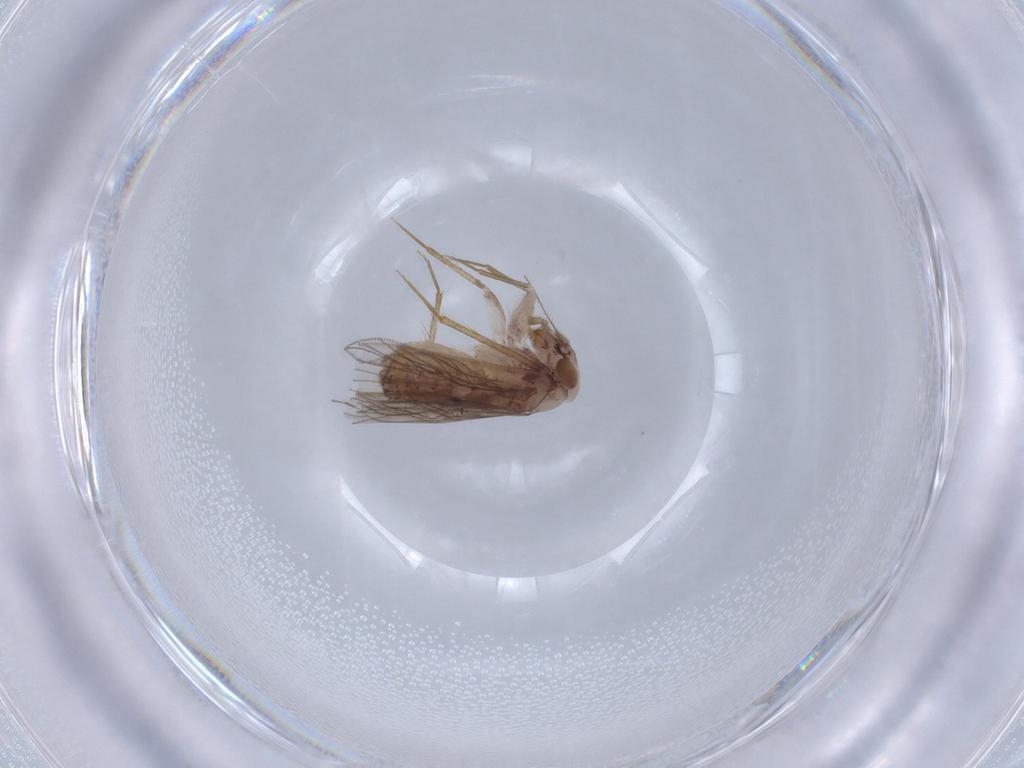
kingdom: Animalia
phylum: Arthropoda
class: Insecta
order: Psocodea
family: Lepidopsocidae
